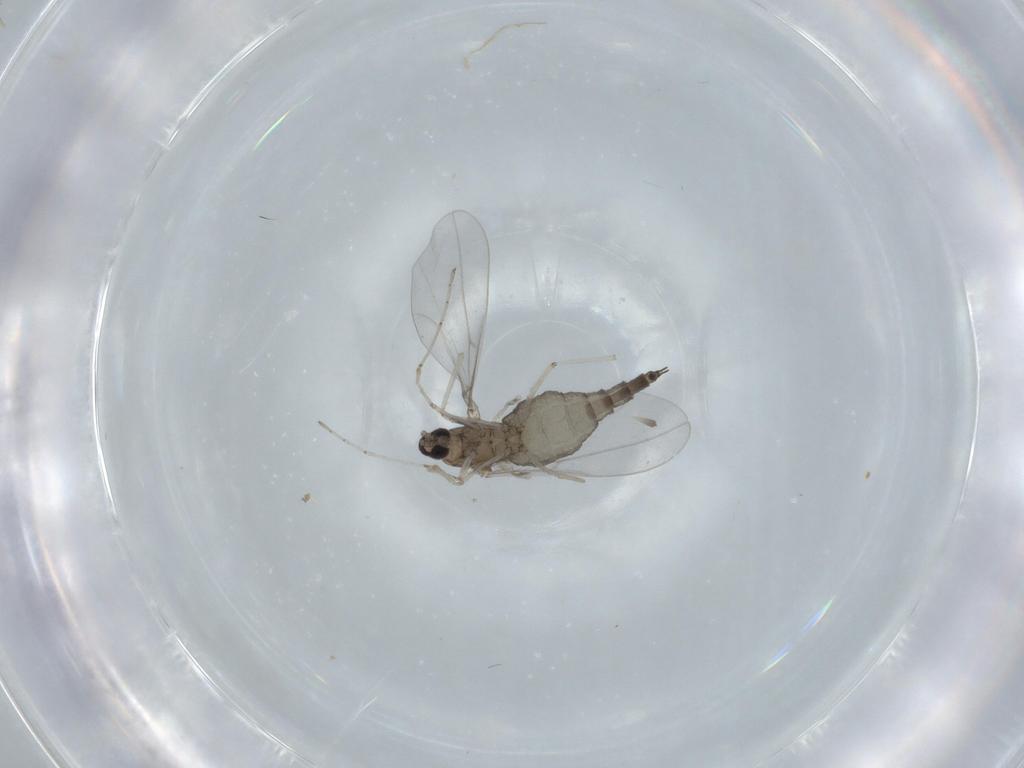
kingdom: Animalia
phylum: Arthropoda
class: Insecta
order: Diptera
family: Cecidomyiidae
